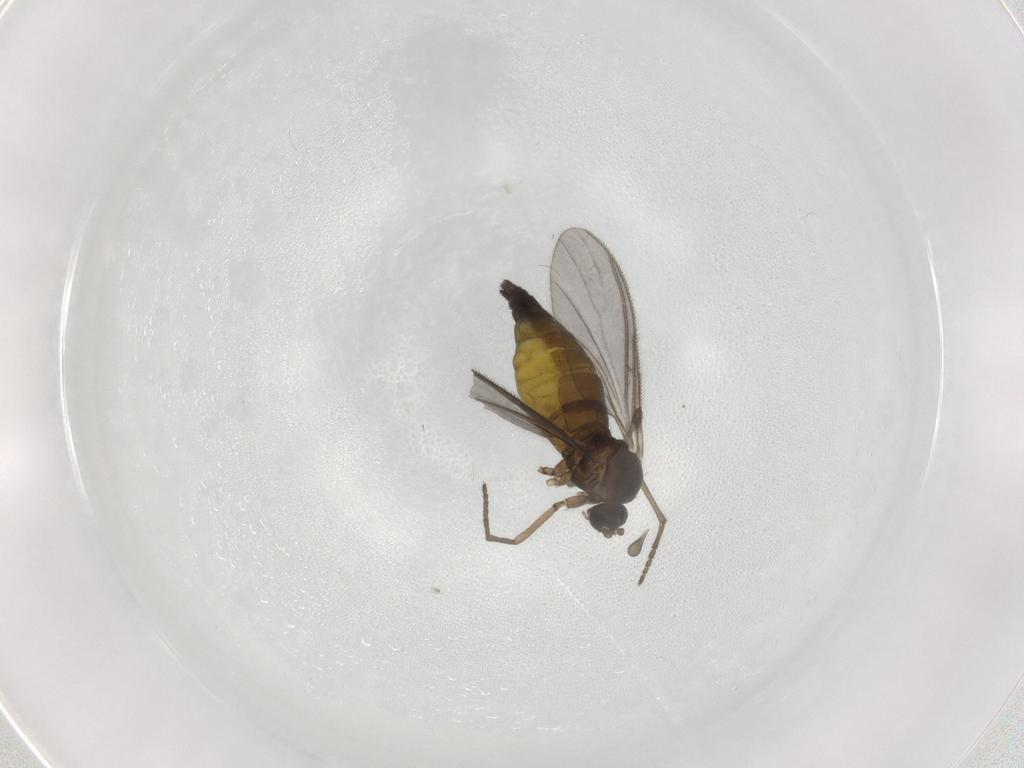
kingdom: Animalia
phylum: Arthropoda
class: Insecta
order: Diptera
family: Sciaridae
